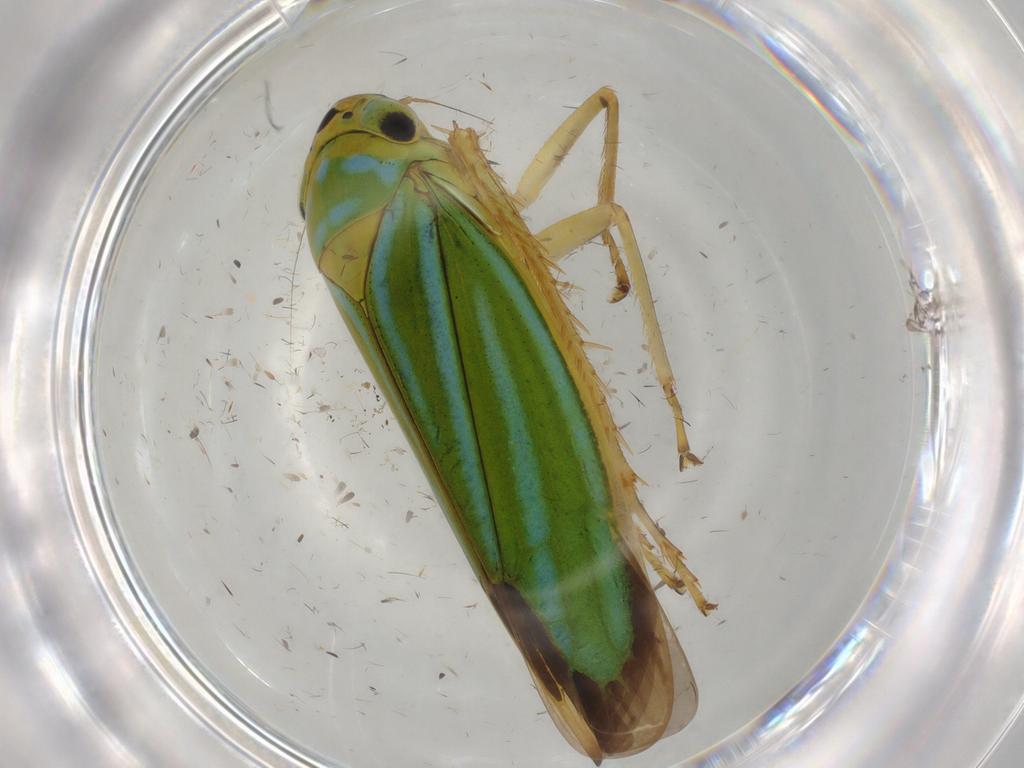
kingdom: Animalia
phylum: Arthropoda
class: Insecta
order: Hemiptera
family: Cicadellidae
